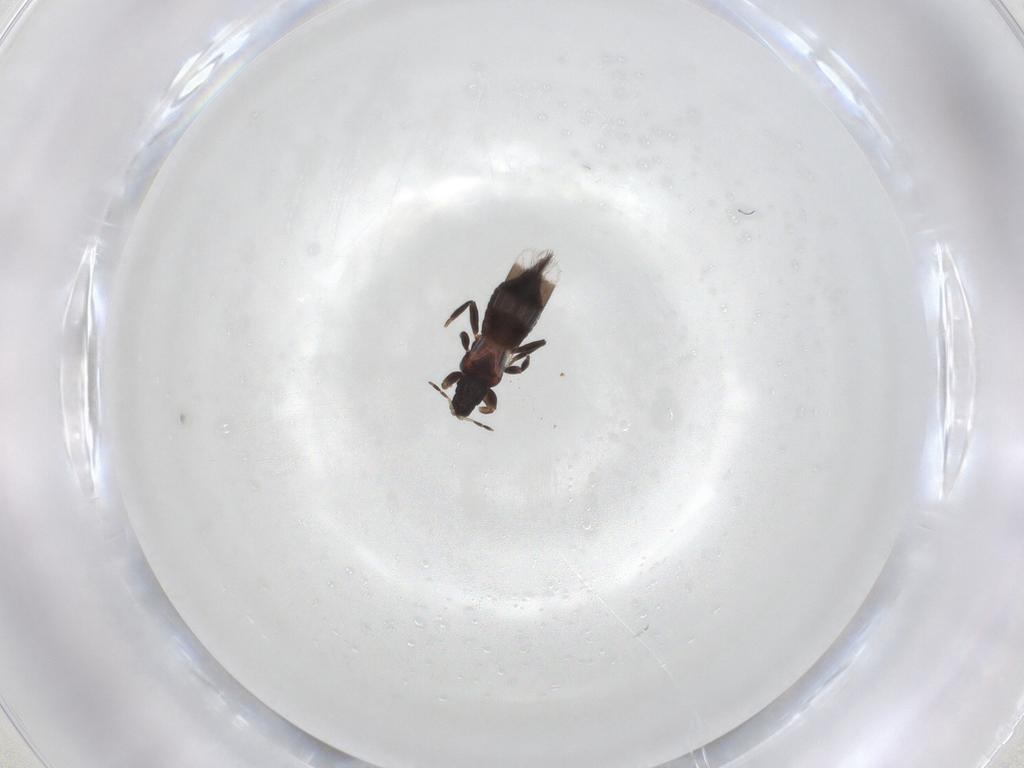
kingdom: Animalia
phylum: Arthropoda
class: Insecta
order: Thysanoptera
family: Aeolothripidae
